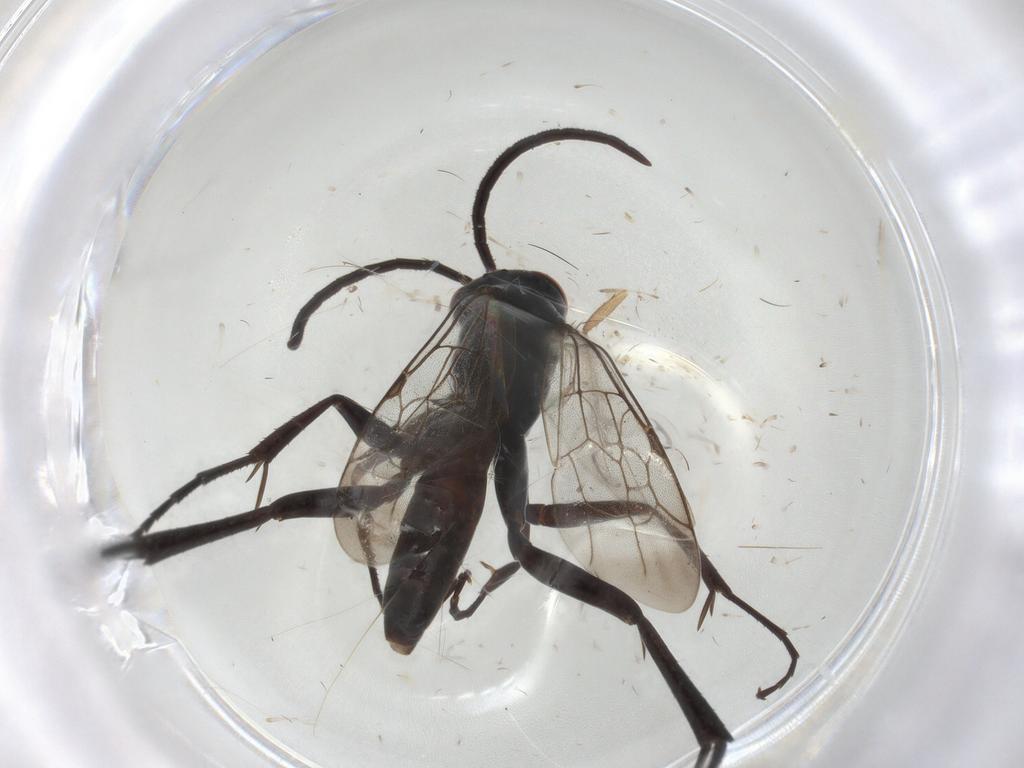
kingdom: Animalia
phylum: Arthropoda
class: Insecta
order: Hymenoptera
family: Pompilidae
